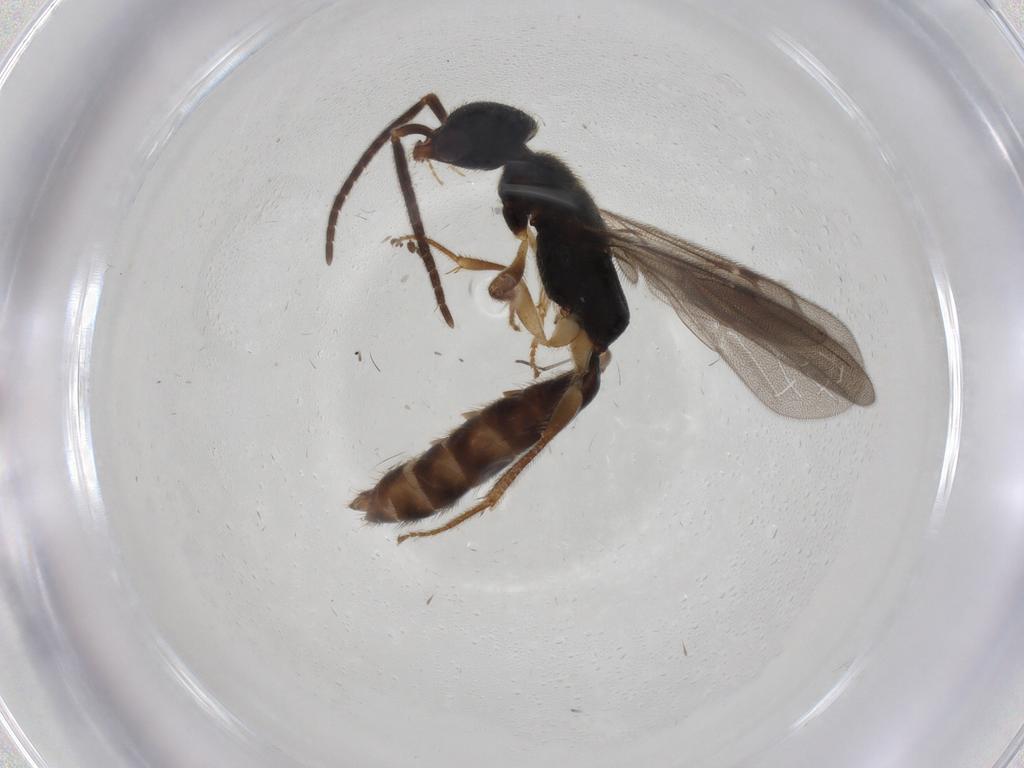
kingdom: Animalia
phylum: Arthropoda
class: Insecta
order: Hymenoptera
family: Bethylidae
